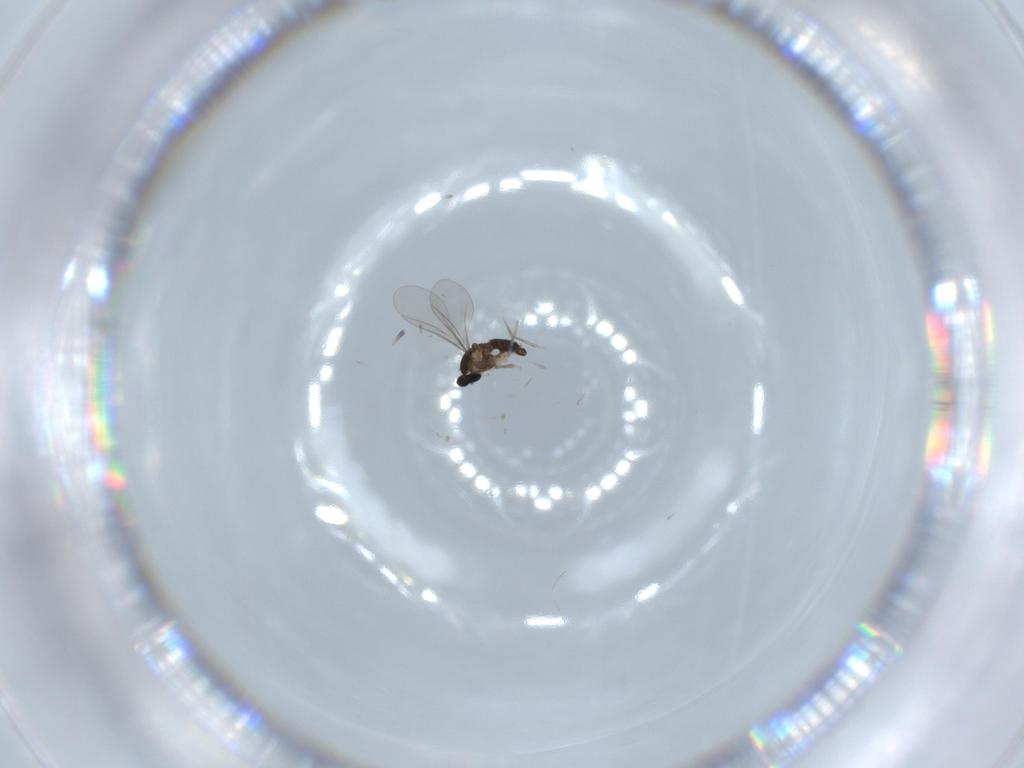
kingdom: Animalia
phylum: Arthropoda
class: Insecta
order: Diptera
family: Cecidomyiidae
